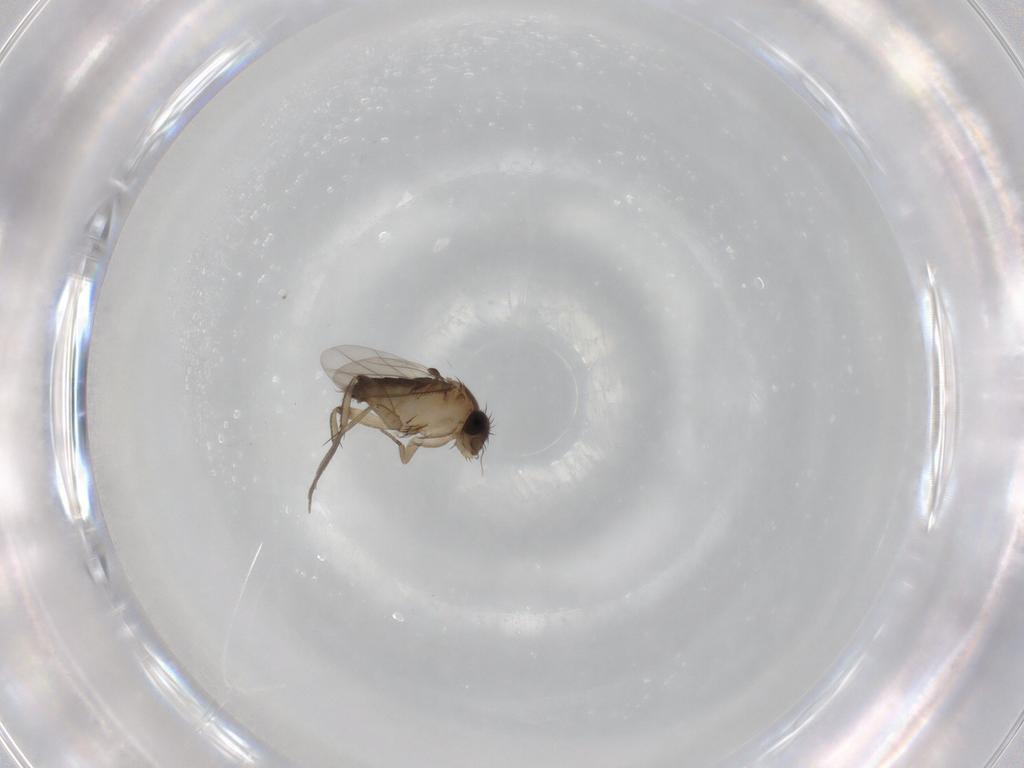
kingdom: Animalia
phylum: Arthropoda
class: Insecta
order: Diptera
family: Phoridae
